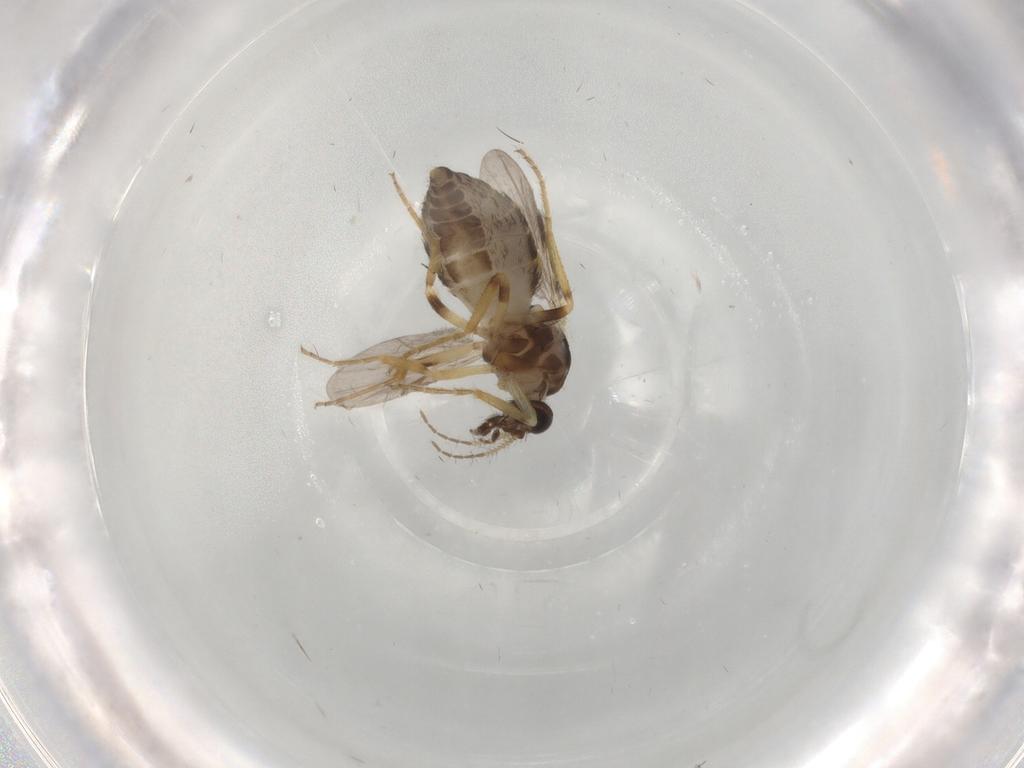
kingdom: Animalia
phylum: Arthropoda
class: Insecta
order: Diptera
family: Ceratopogonidae
